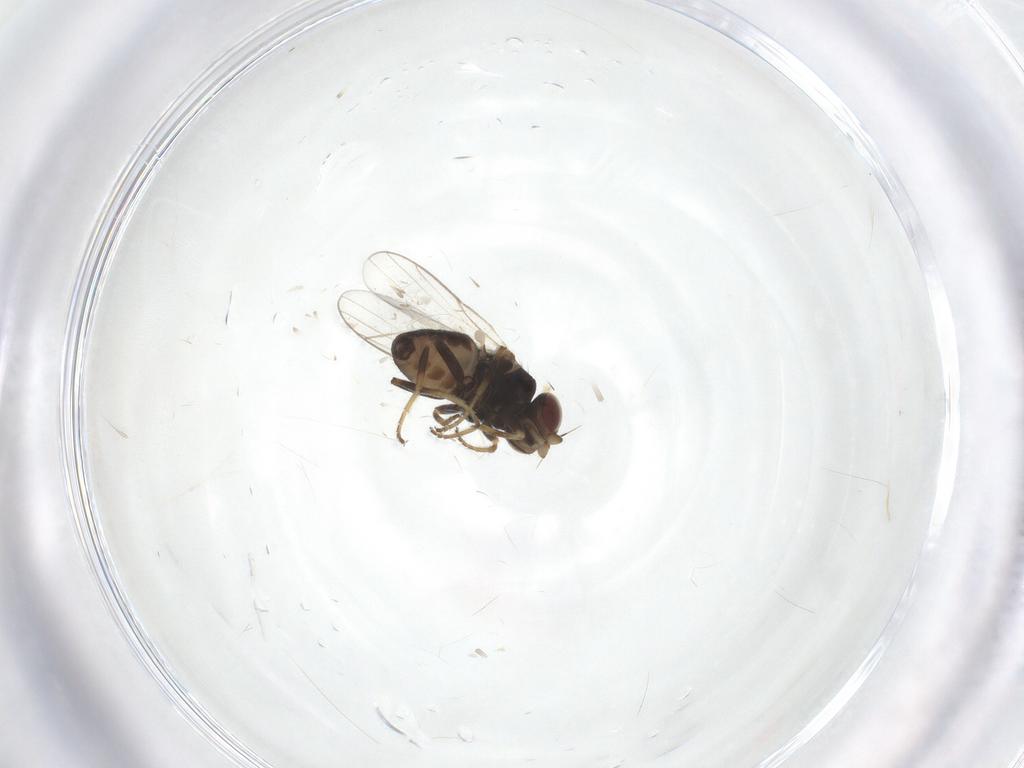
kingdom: Animalia
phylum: Arthropoda
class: Insecta
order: Diptera
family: Chloropidae
